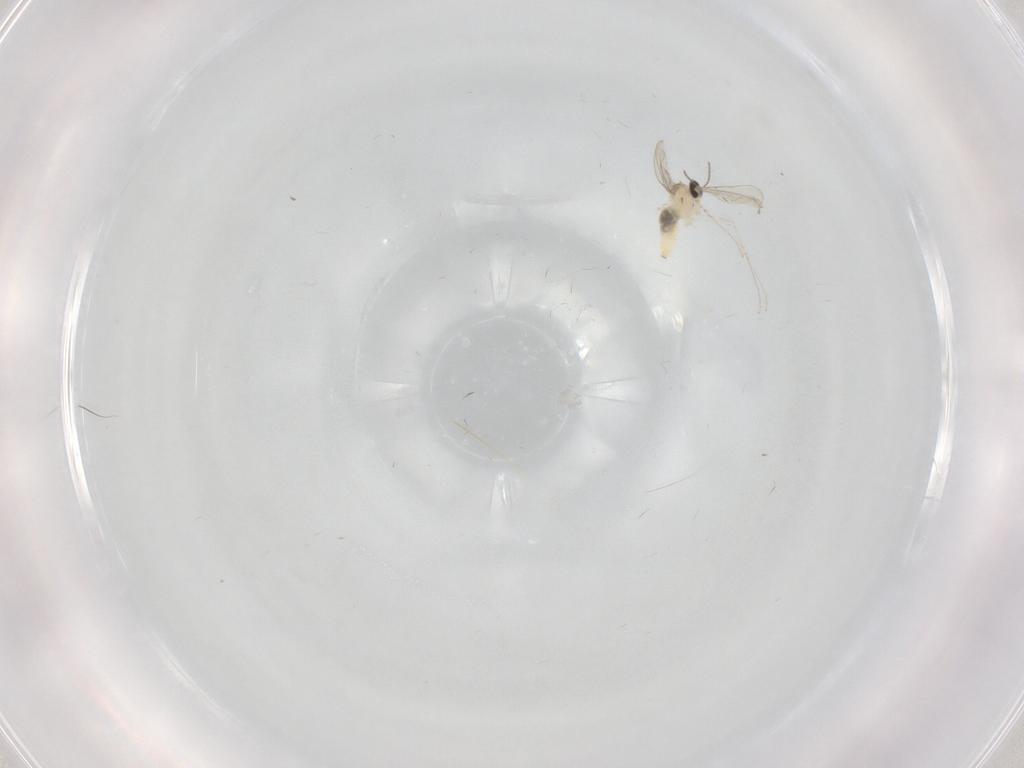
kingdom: Animalia
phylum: Arthropoda
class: Insecta
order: Diptera
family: Cecidomyiidae
